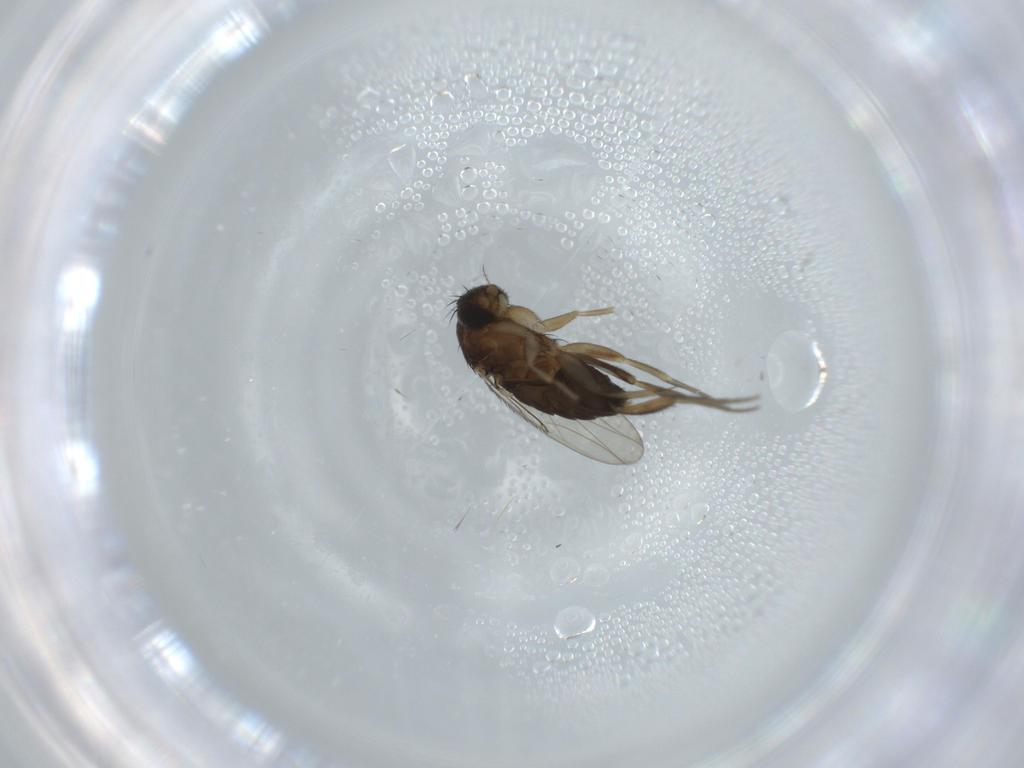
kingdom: Animalia
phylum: Arthropoda
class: Insecta
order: Diptera
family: Phoridae
